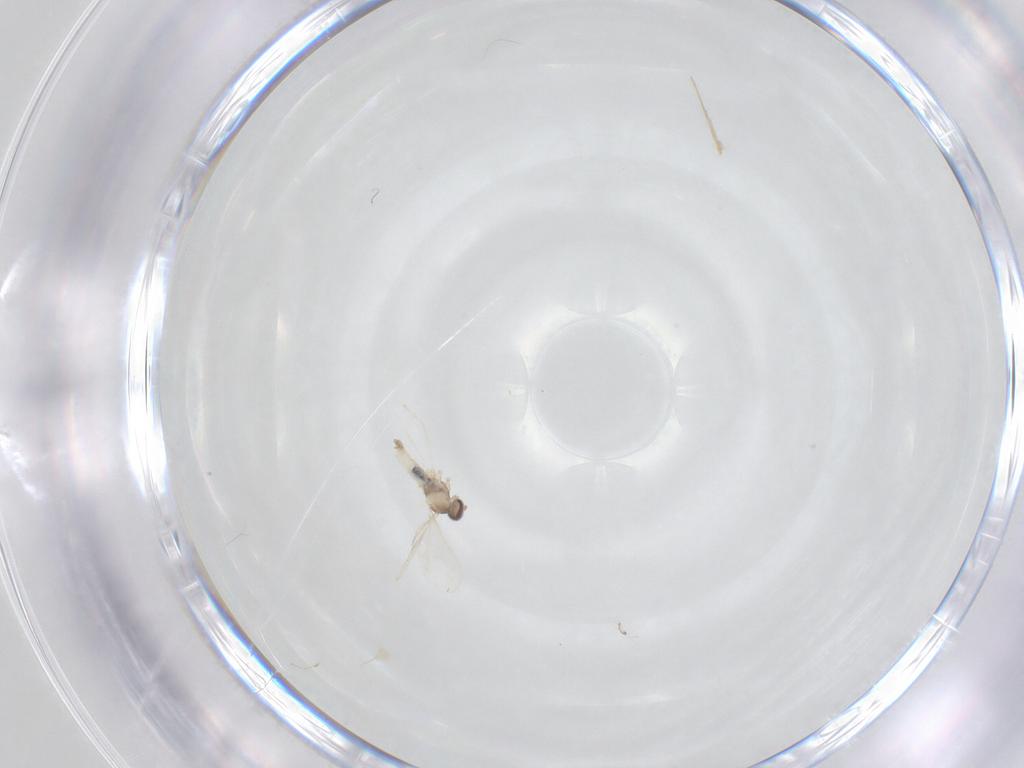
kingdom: Animalia
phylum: Arthropoda
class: Insecta
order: Diptera
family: Cecidomyiidae
